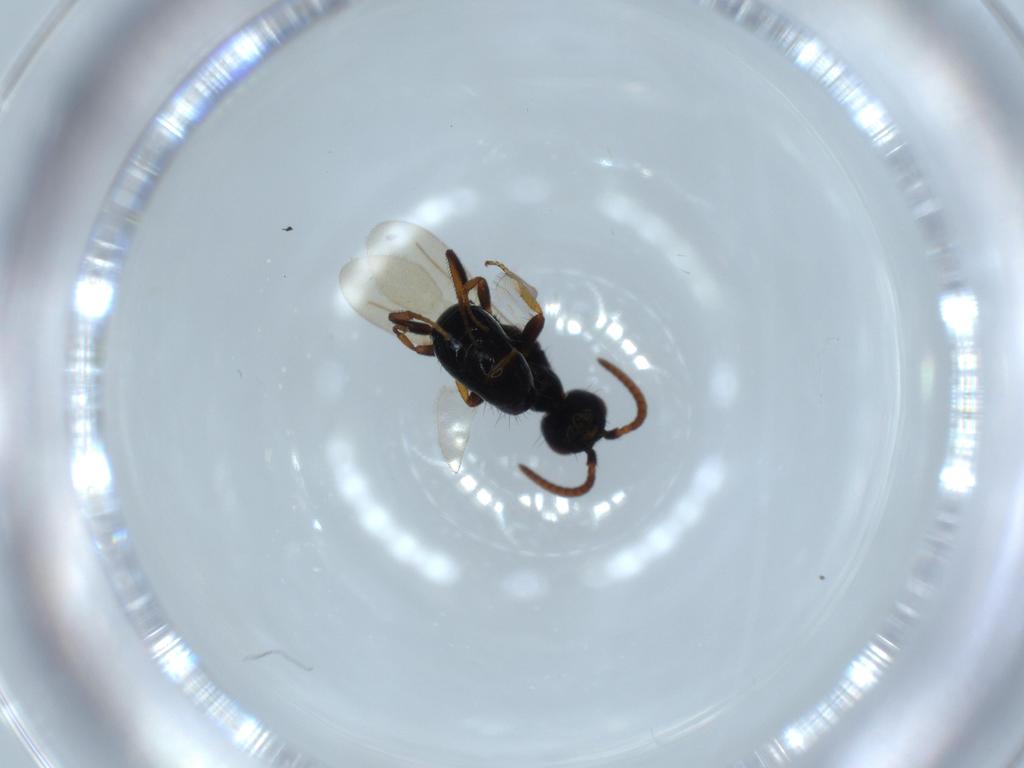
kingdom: Animalia
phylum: Arthropoda
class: Insecta
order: Hymenoptera
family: Bethylidae
